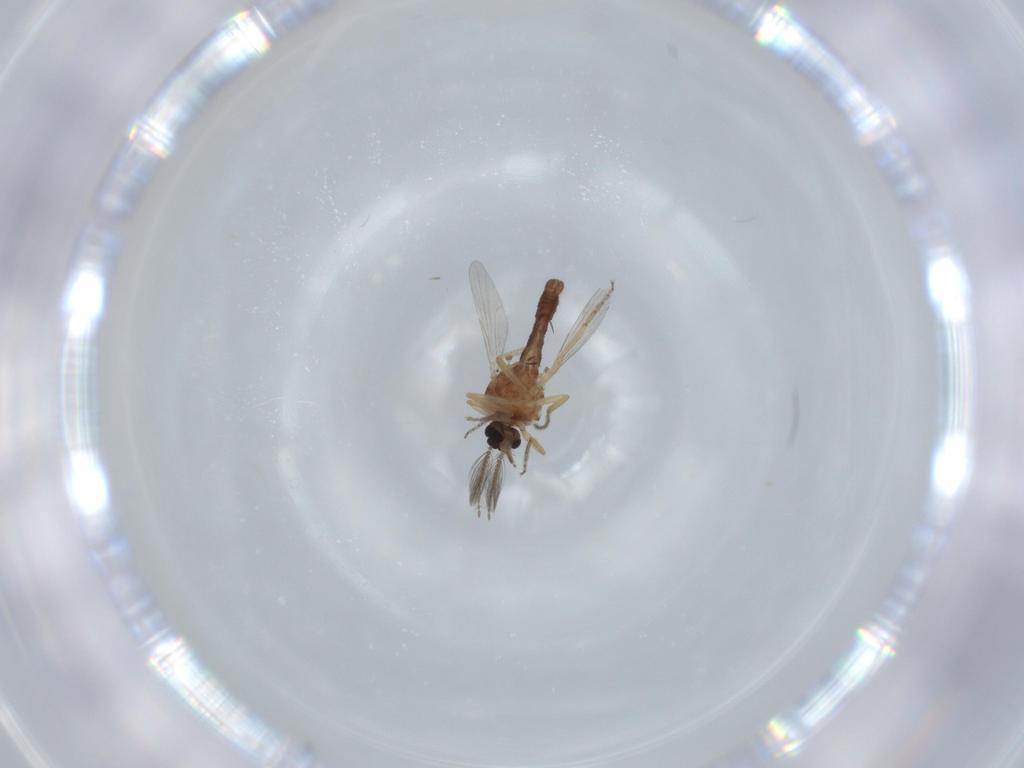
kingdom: Animalia
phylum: Arthropoda
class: Insecta
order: Diptera
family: Ceratopogonidae
